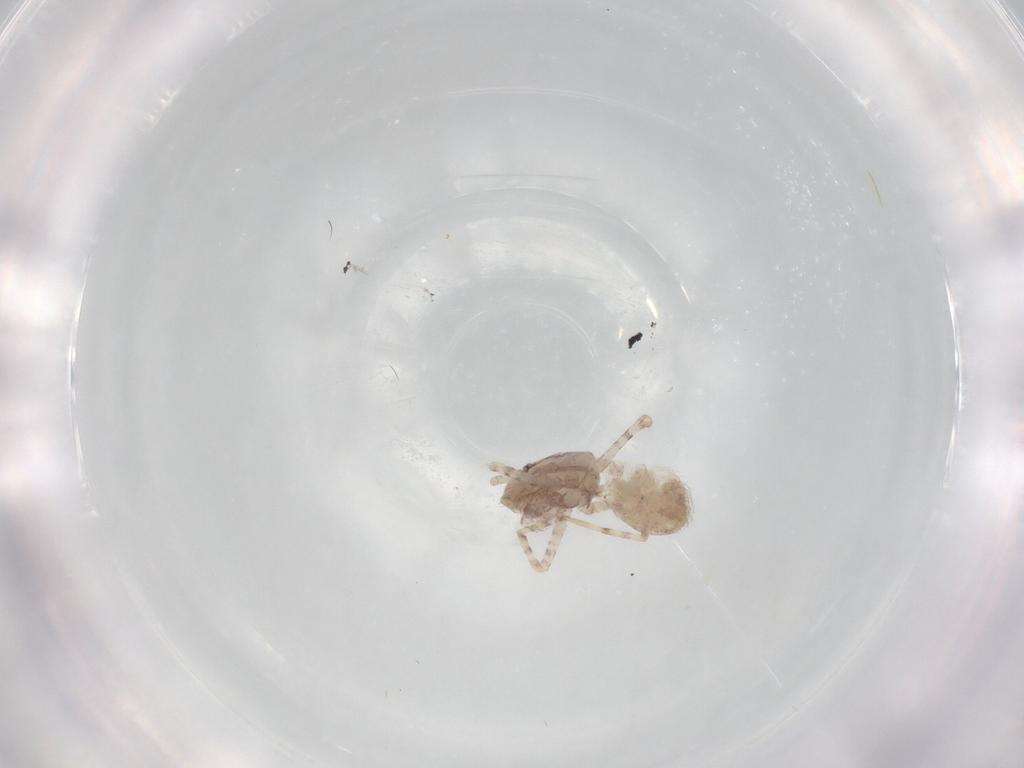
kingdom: Animalia
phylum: Arthropoda
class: Arachnida
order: Araneae
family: Scytodidae
